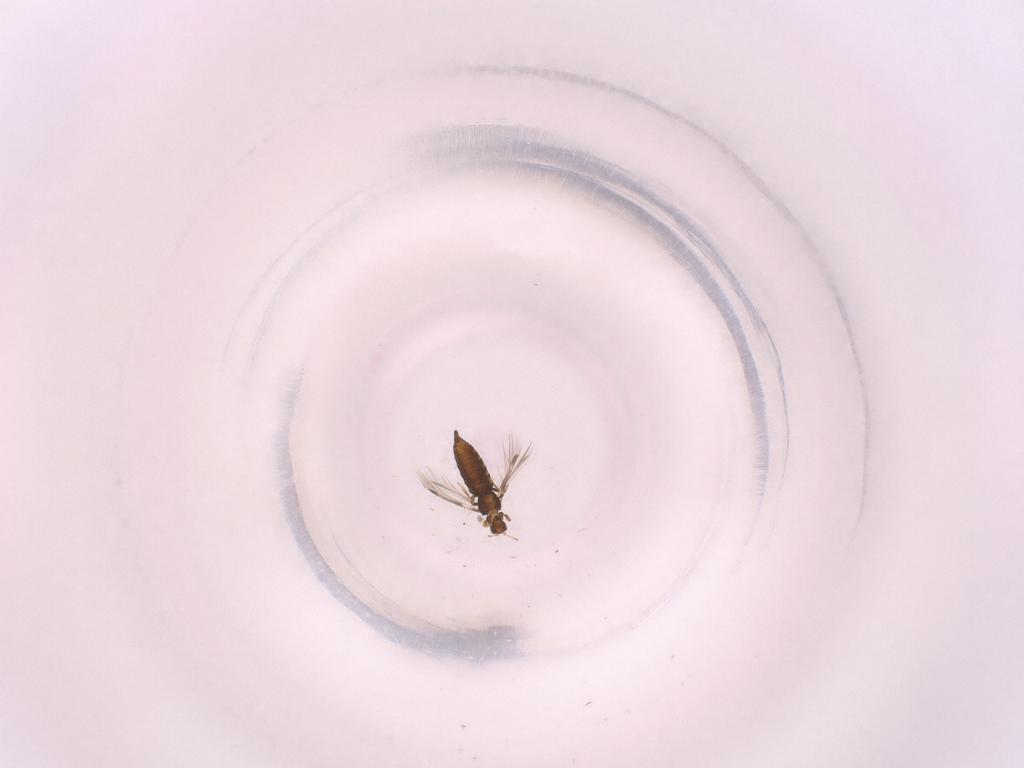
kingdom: Animalia
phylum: Arthropoda
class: Insecta
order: Thysanoptera
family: Thripidae
